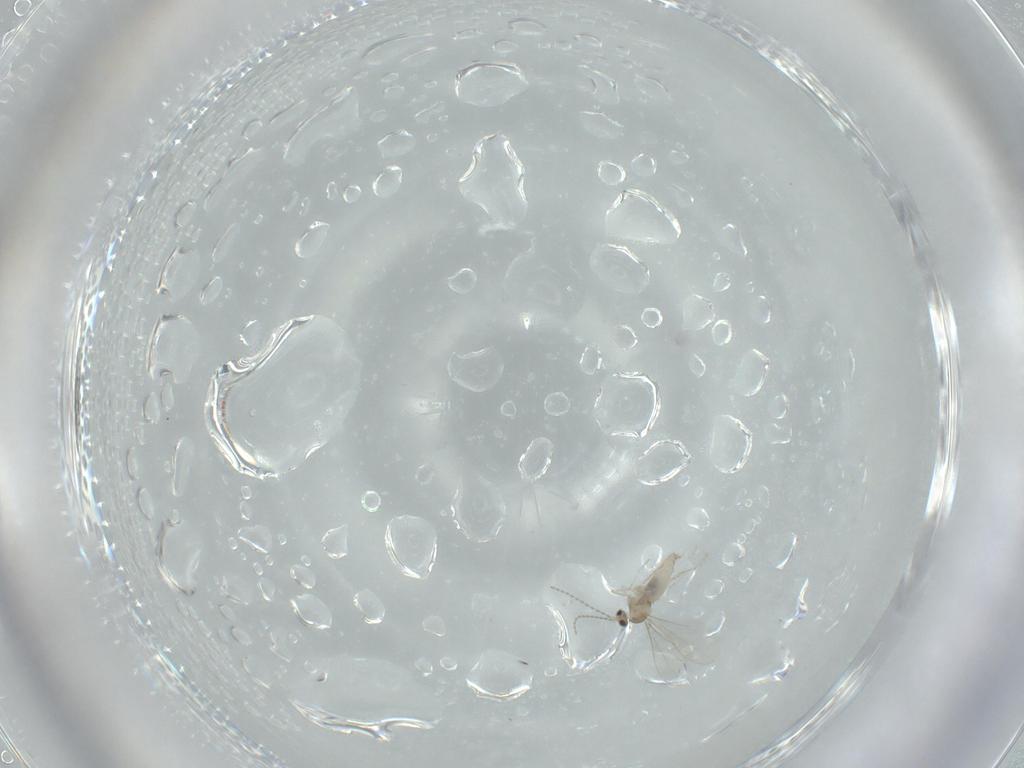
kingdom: Animalia
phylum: Arthropoda
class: Insecta
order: Diptera
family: Cecidomyiidae
